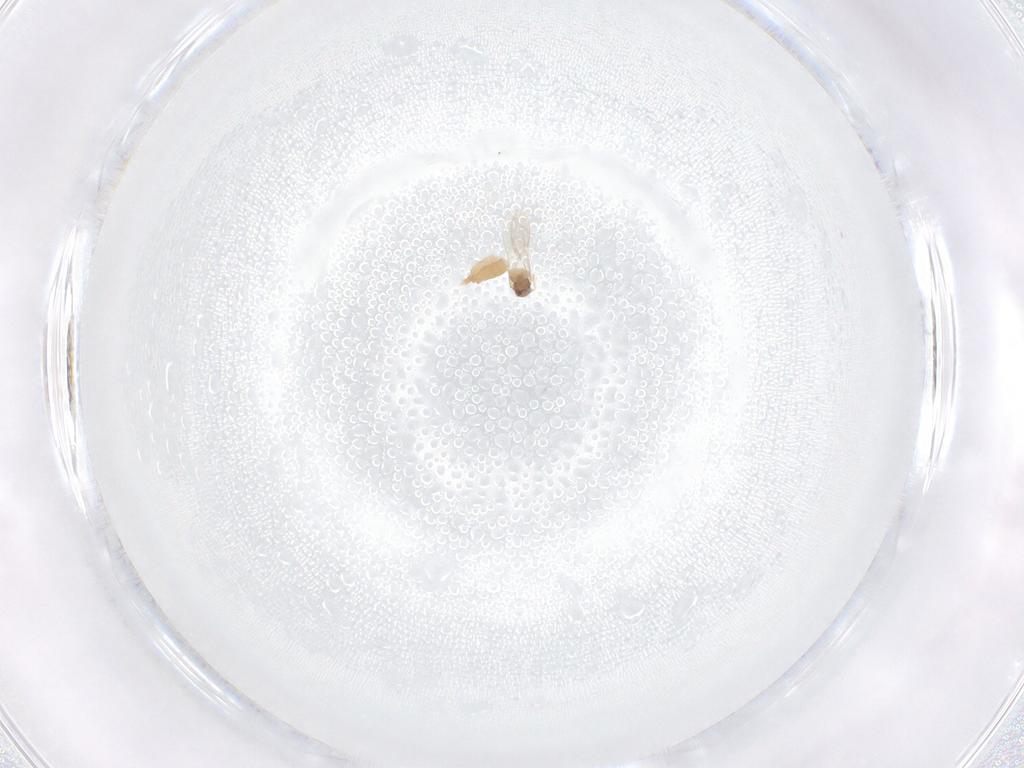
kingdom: Animalia
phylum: Arthropoda
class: Insecta
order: Diptera
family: Cecidomyiidae
